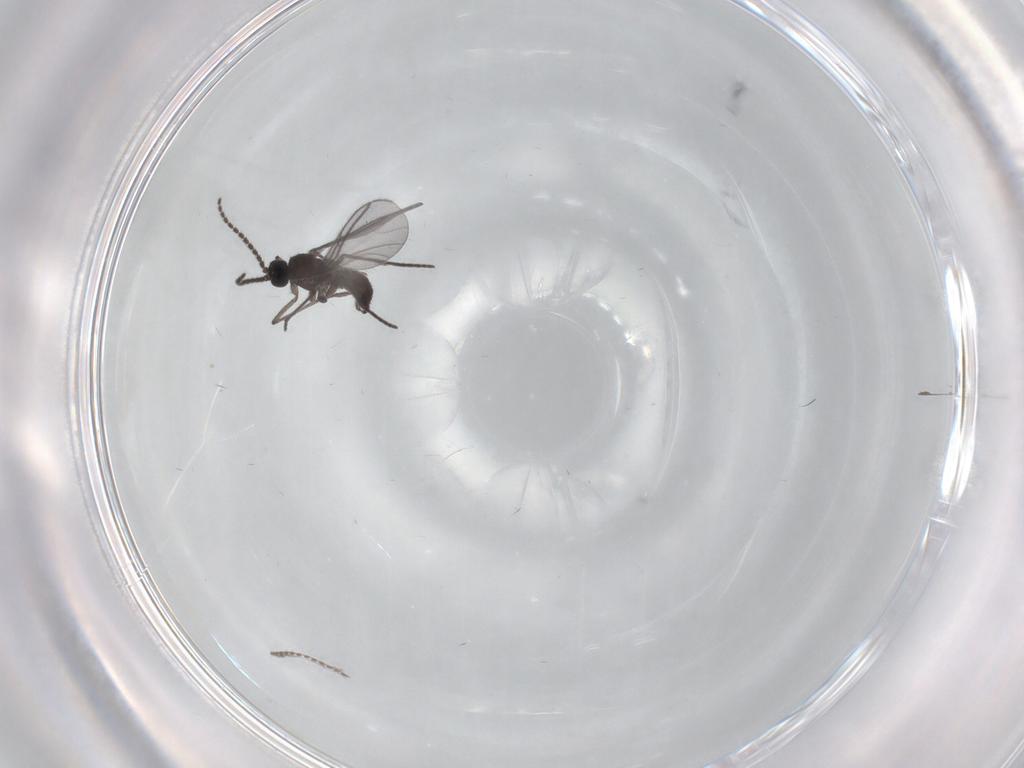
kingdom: Animalia
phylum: Arthropoda
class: Insecta
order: Diptera
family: Sciaridae
